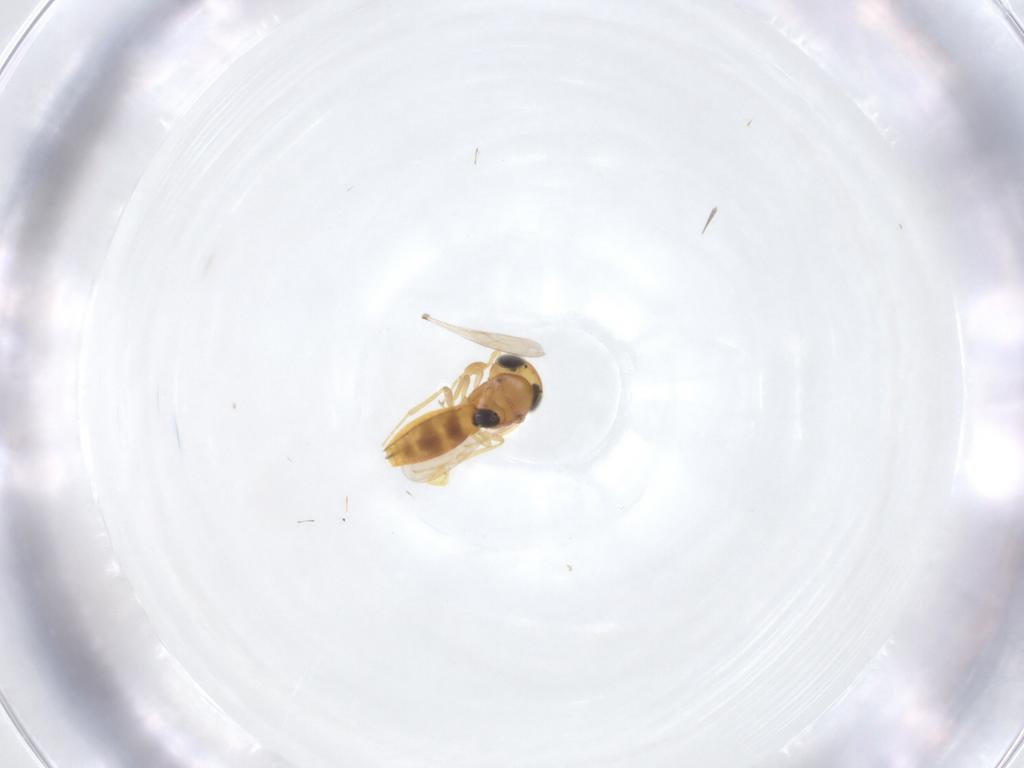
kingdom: Animalia
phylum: Arthropoda
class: Insecta
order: Hymenoptera
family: Scelionidae
